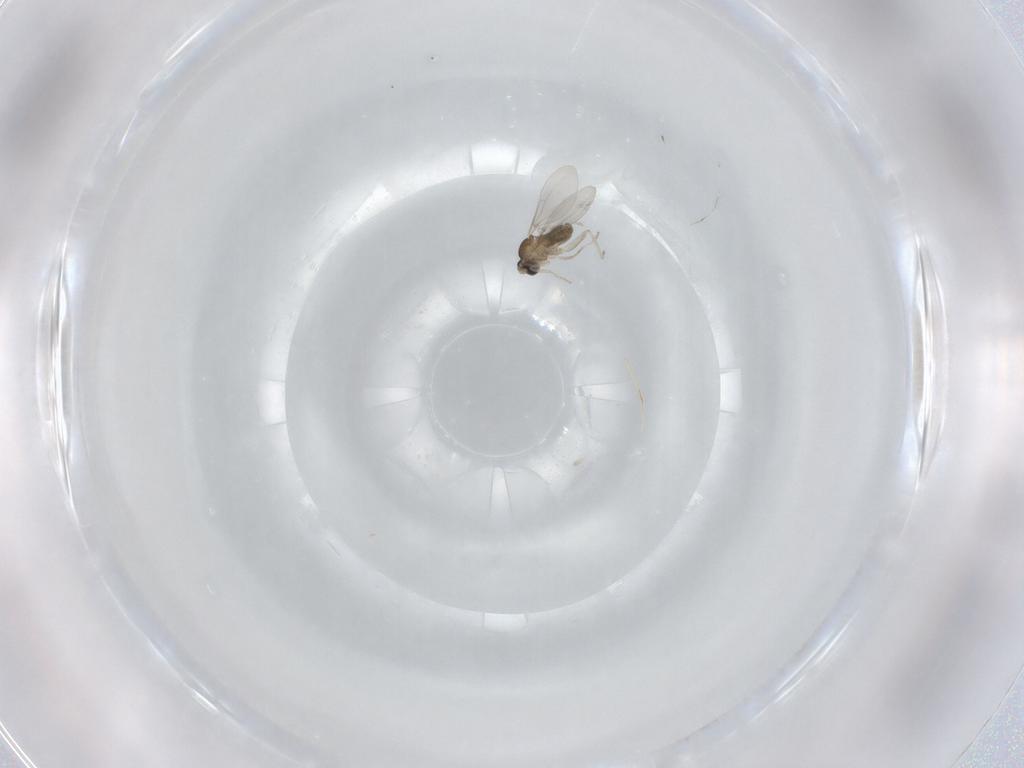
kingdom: Animalia
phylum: Arthropoda
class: Insecta
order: Diptera
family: Cecidomyiidae
